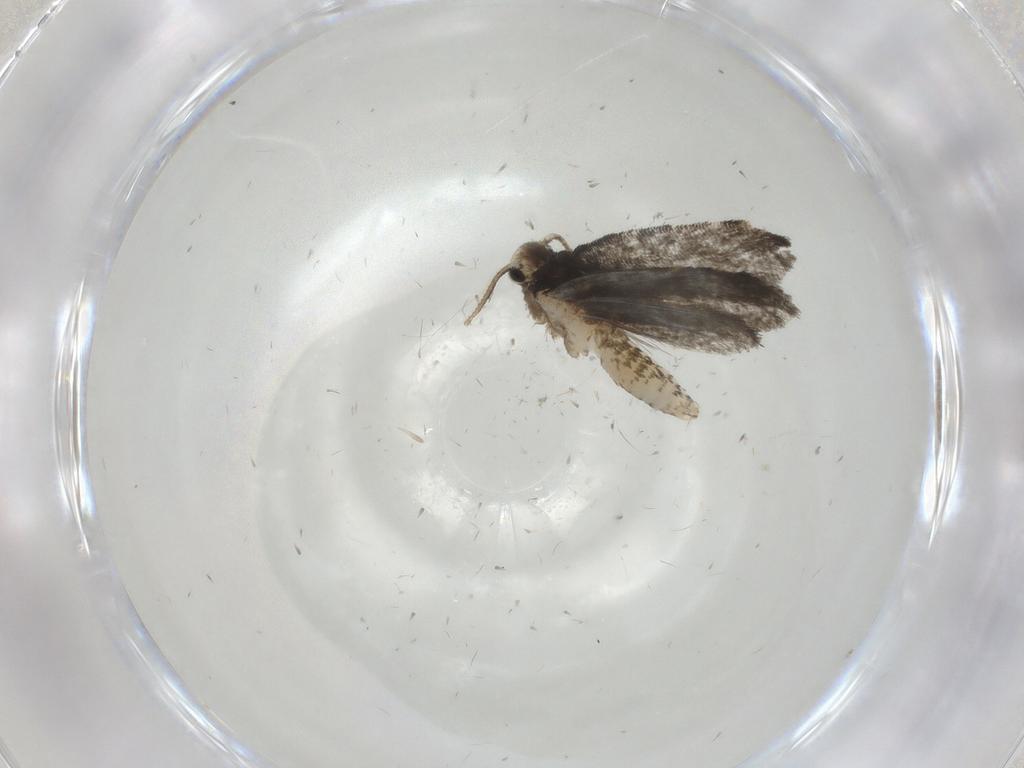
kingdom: Animalia
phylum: Arthropoda
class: Insecta
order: Lepidoptera
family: Psychidae
